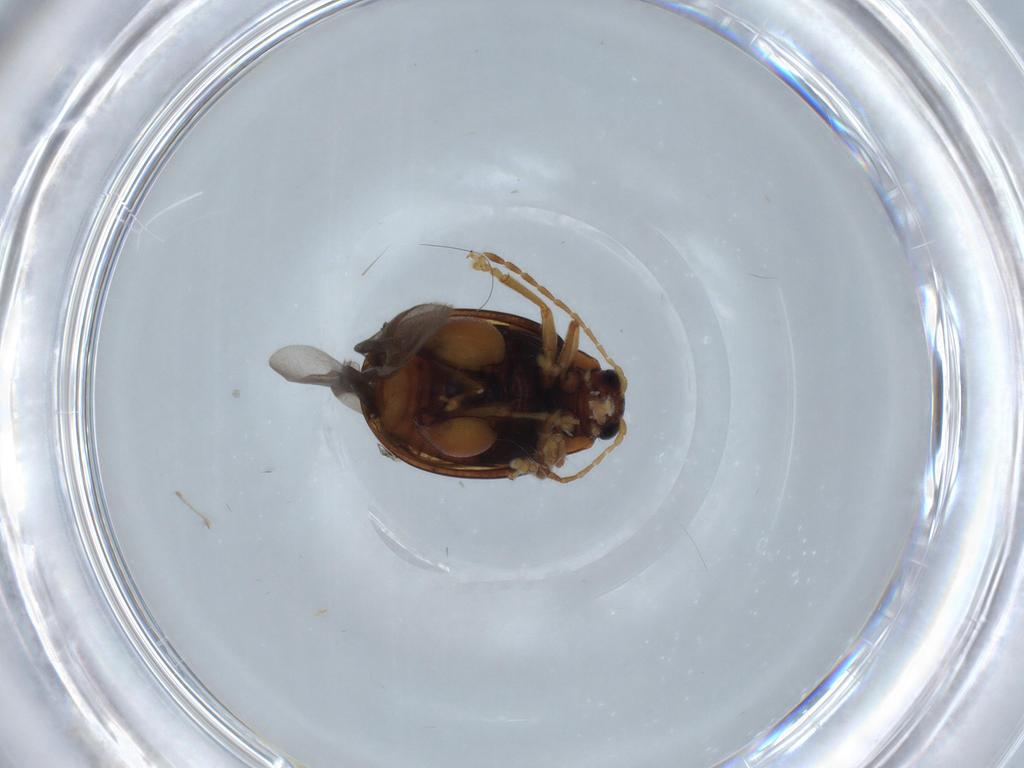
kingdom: Animalia
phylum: Arthropoda
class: Insecta
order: Coleoptera
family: Chrysomelidae
